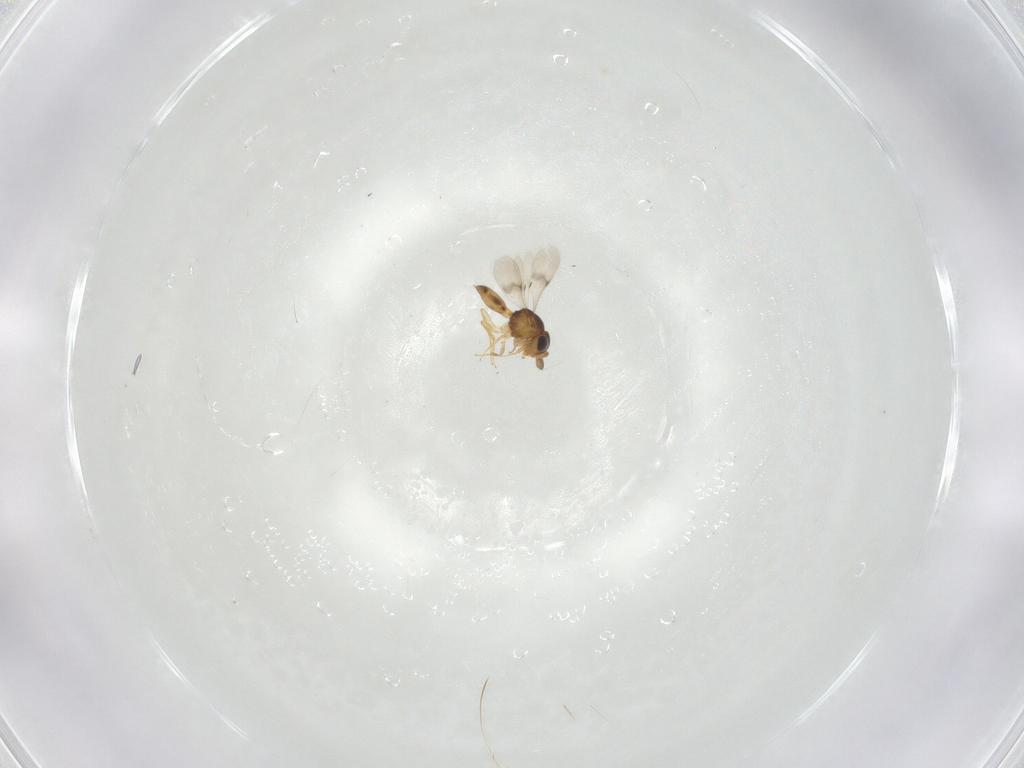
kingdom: Animalia
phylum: Arthropoda
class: Insecta
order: Hymenoptera
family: Scelionidae
